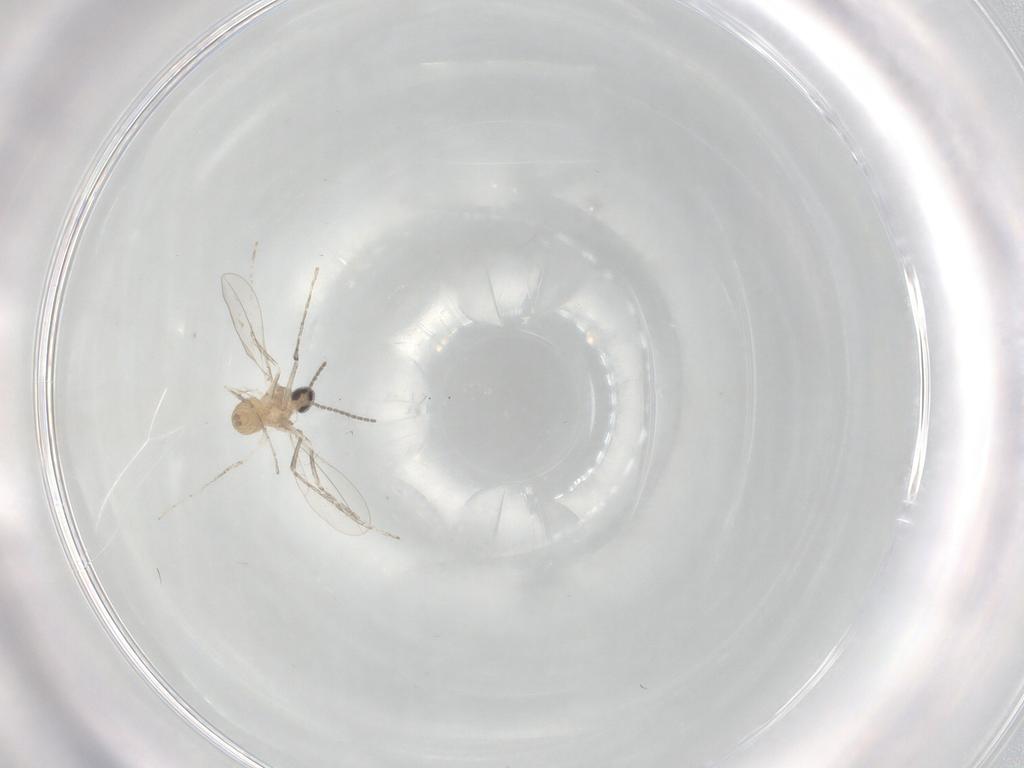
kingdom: Animalia
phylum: Arthropoda
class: Insecta
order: Diptera
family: Cecidomyiidae
